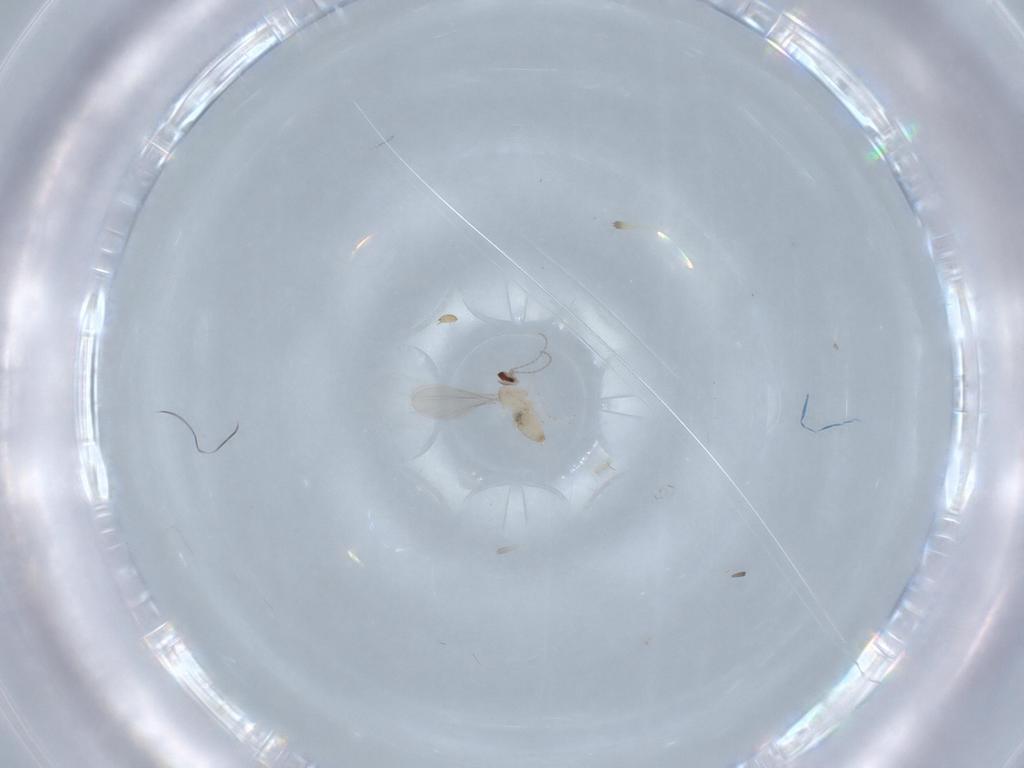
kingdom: Animalia
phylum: Arthropoda
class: Insecta
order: Diptera
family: Cecidomyiidae
